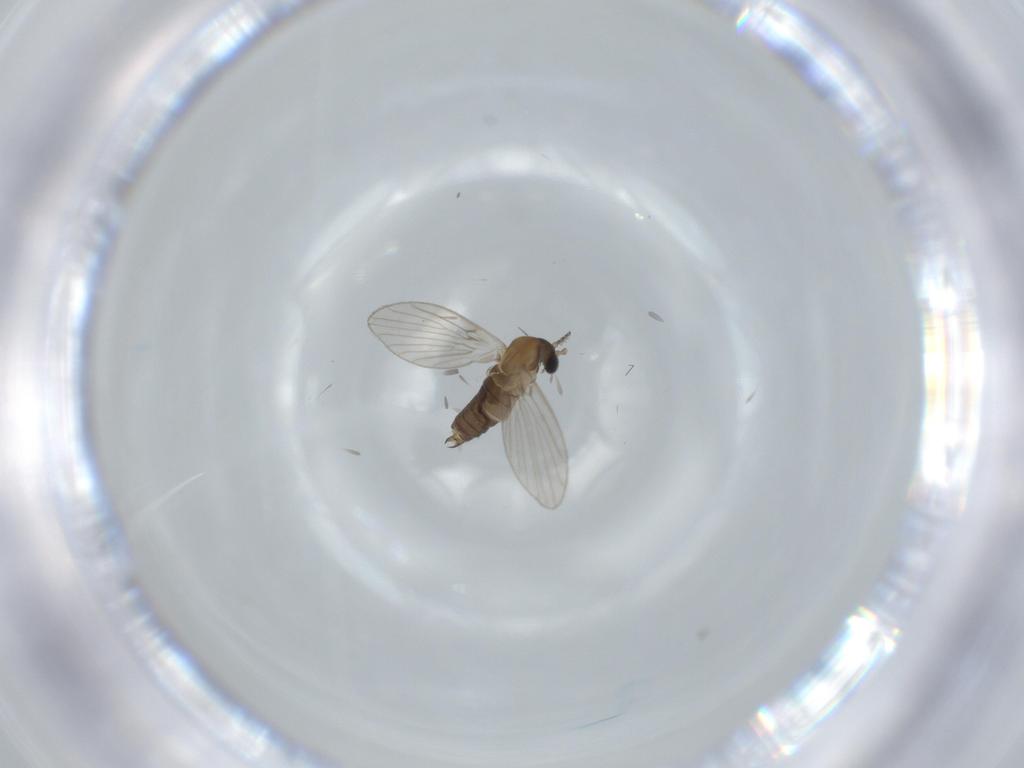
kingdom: Animalia
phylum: Arthropoda
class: Insecta
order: Diptera
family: Psychodidae
